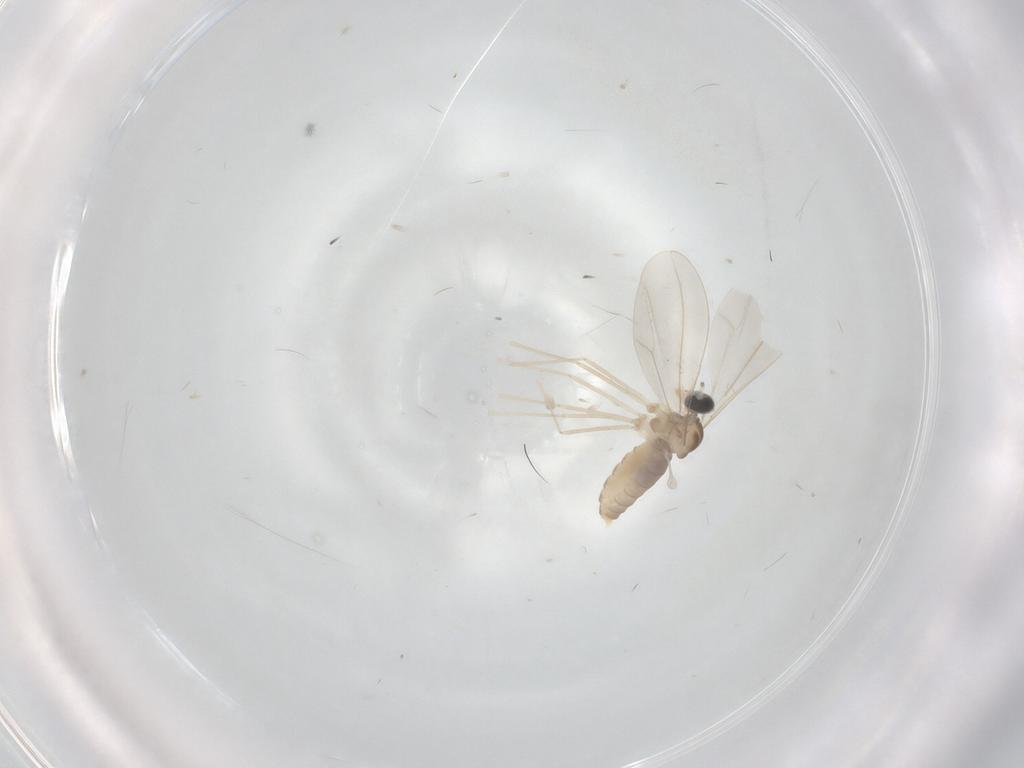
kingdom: Animalia
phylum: Arthropoda
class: Insecta
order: Diptera
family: Cecidomyiidae
